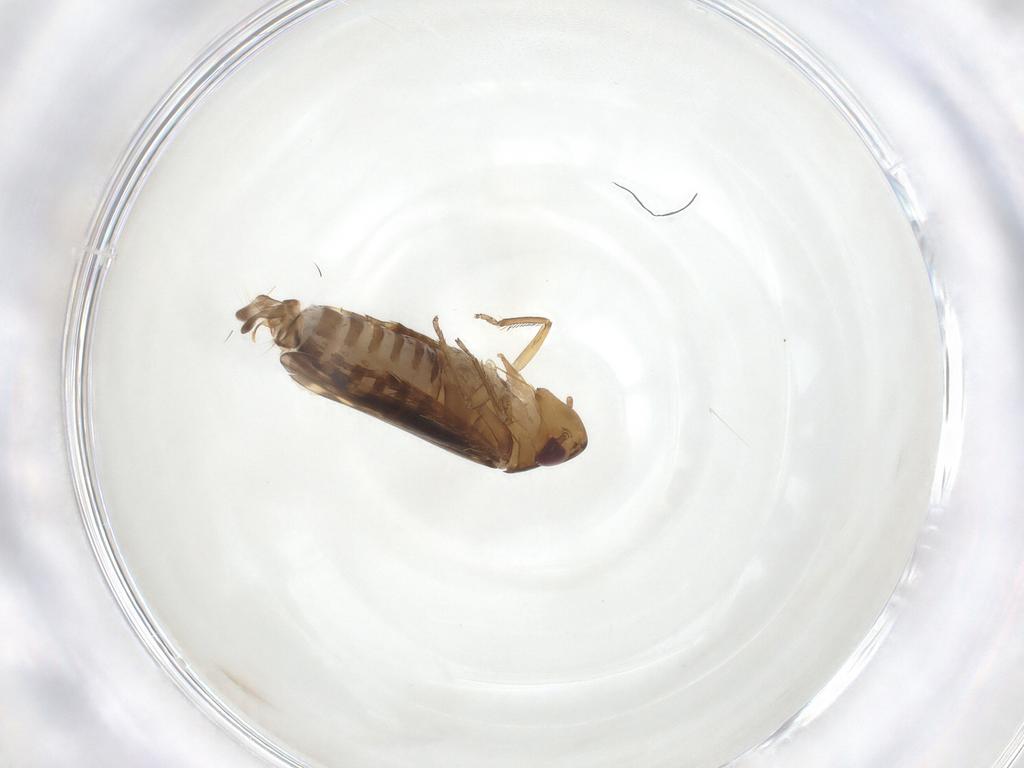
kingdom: Animalia
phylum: Arthropoda
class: Insecta
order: Hemiptera
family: Cicadellidae
